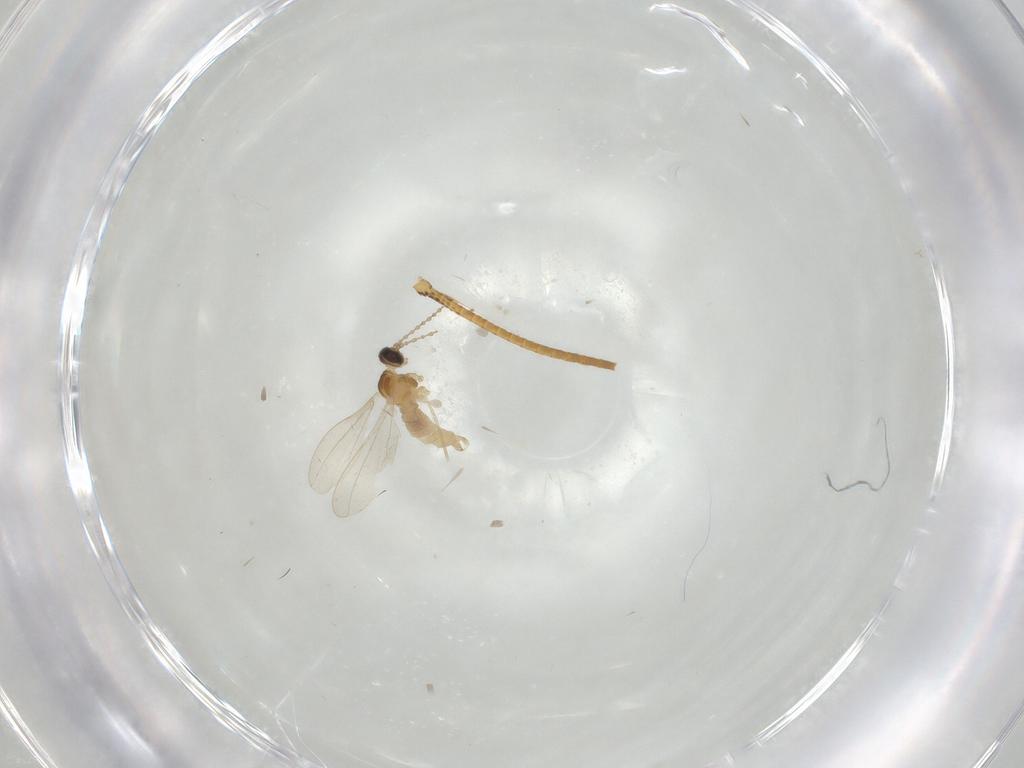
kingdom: Animalia
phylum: Arthropoda
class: Insecta
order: Diptera
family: Cecidomyiidae
